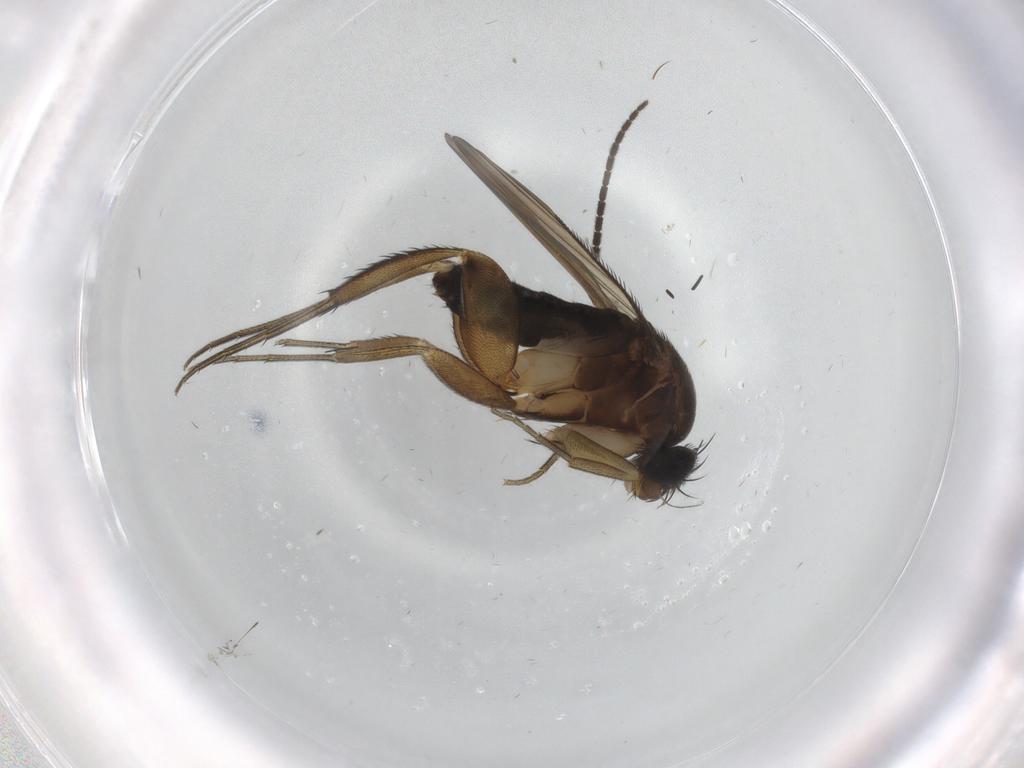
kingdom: Animalia
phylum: Arthropoda
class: Insecta
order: Diptera
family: Phoridae
